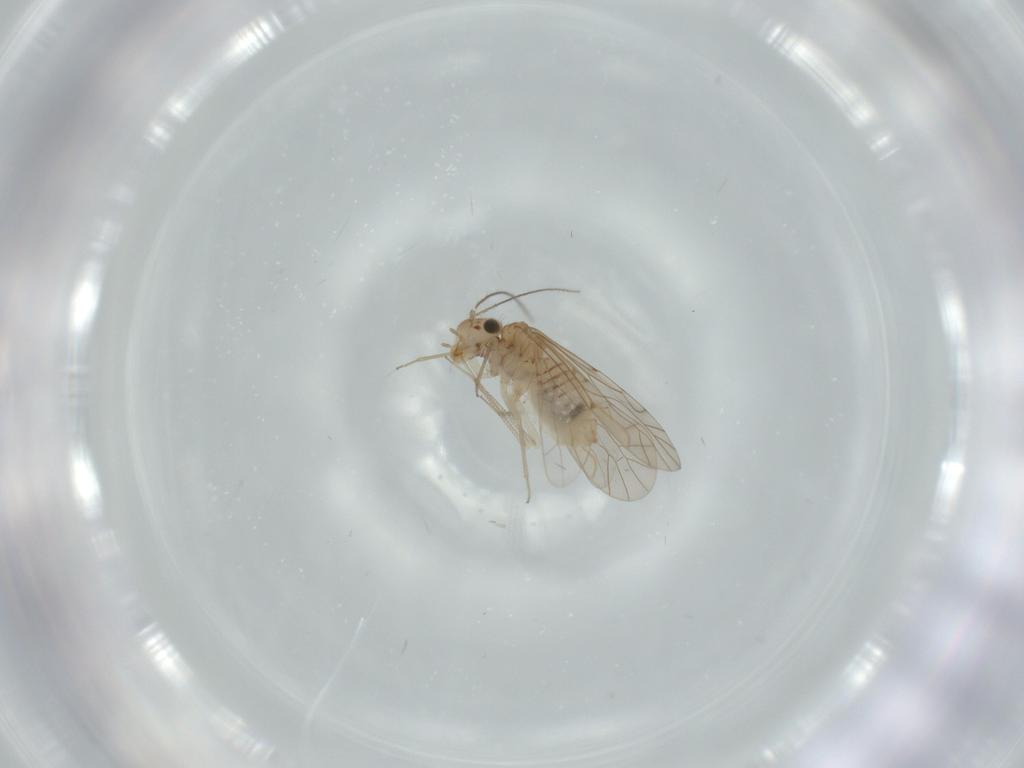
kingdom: Animalia
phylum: Arthropoda
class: Insecta
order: Psocodea
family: Lachesillidae
